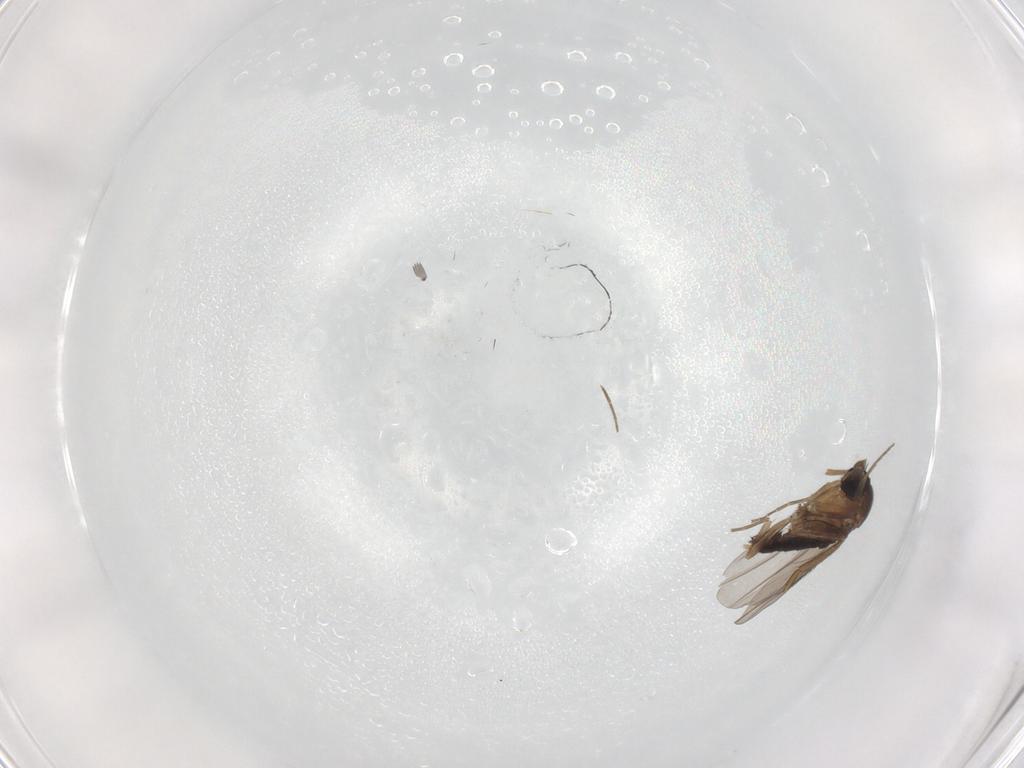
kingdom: Animalia
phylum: Arthropoda
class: Insecta
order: Diptera
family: Phoridae
